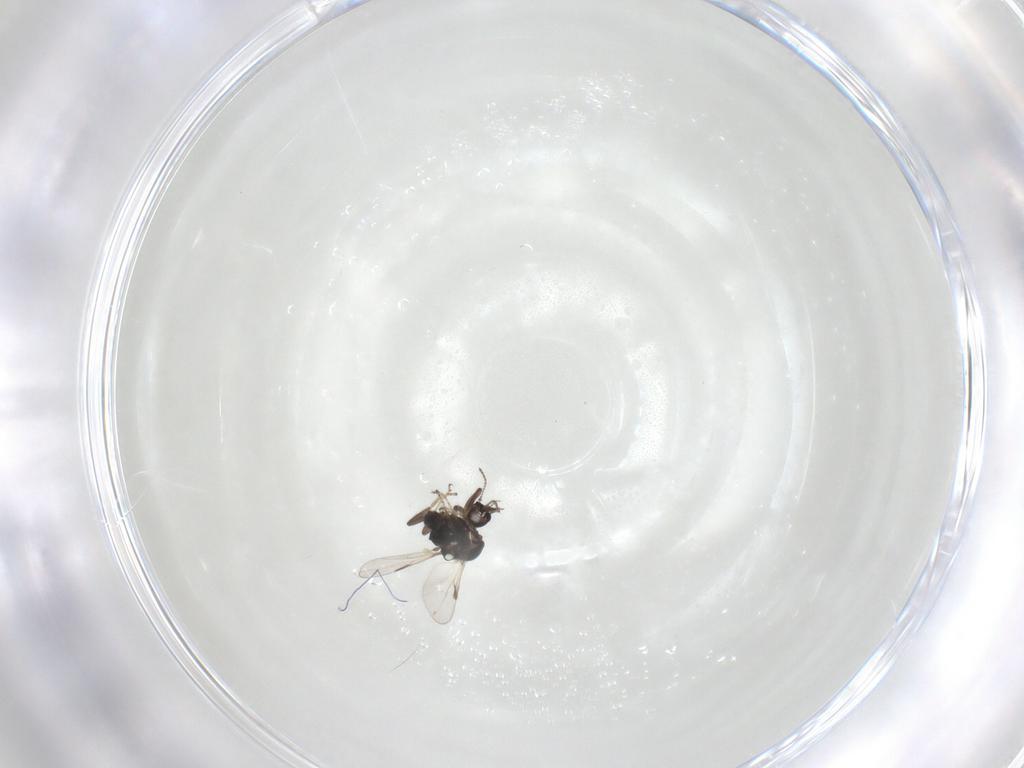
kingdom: Animalia
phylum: Arthropoda
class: Insecta
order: Diptera
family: Ceratopogonidae
